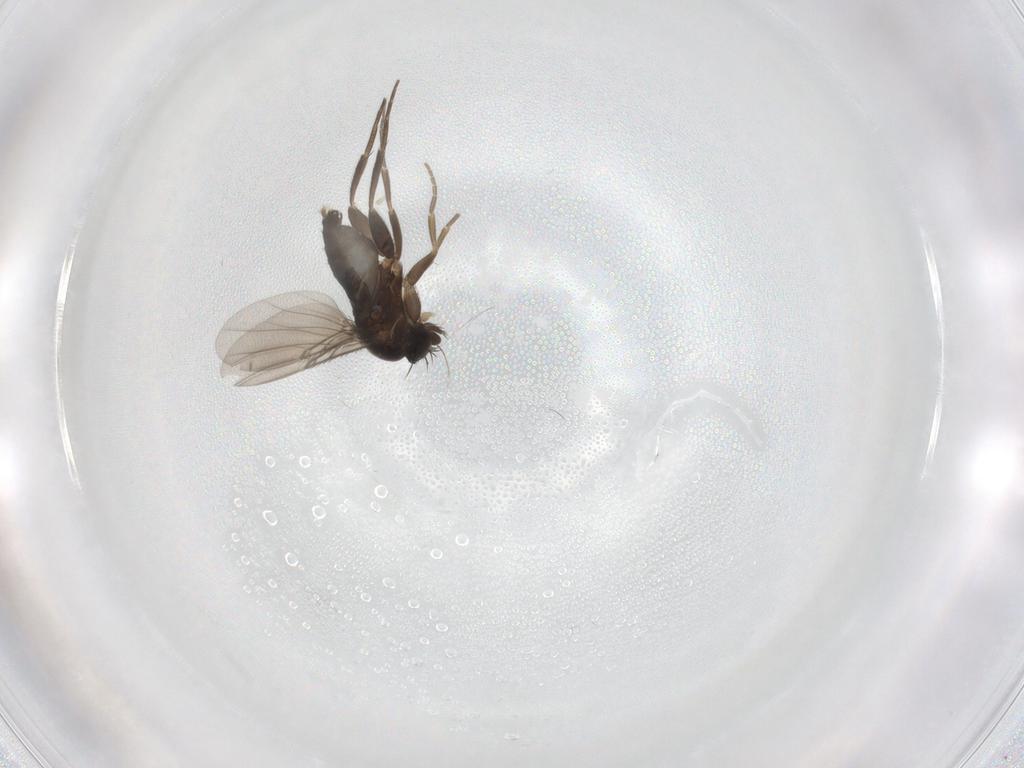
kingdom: Animalia
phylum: Arthropoda
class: Insecta
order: Diptera
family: Phoridae
